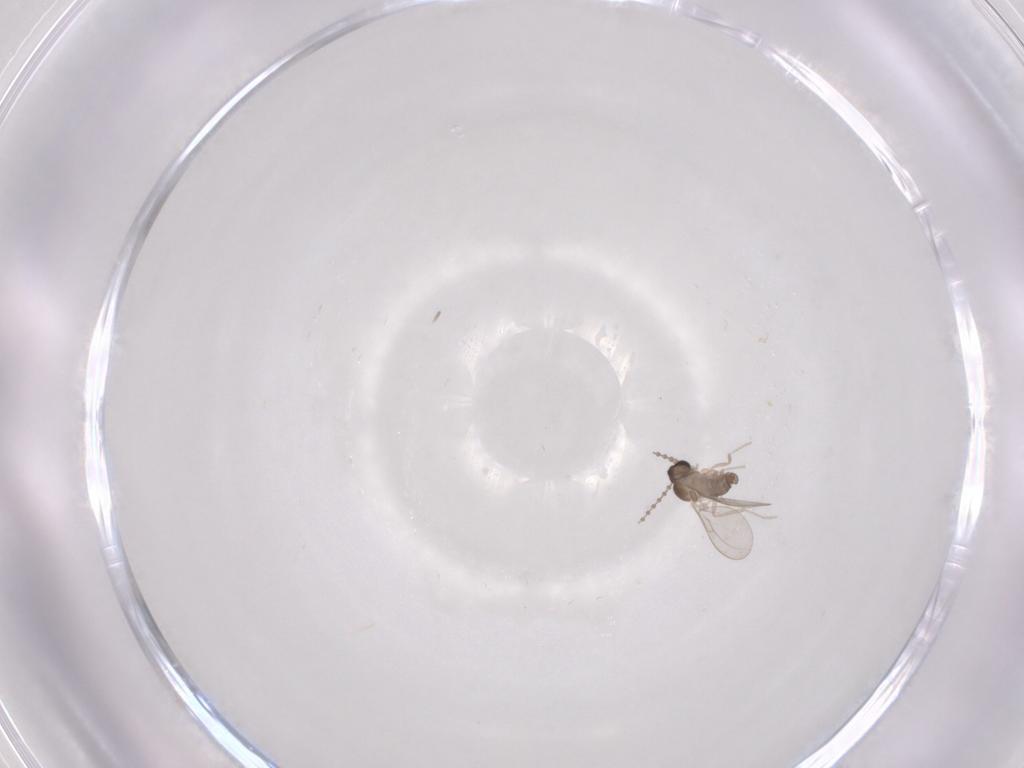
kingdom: Animalia
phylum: Arthropoda
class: Insecta
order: Diptera
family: Cecidomyiidae
